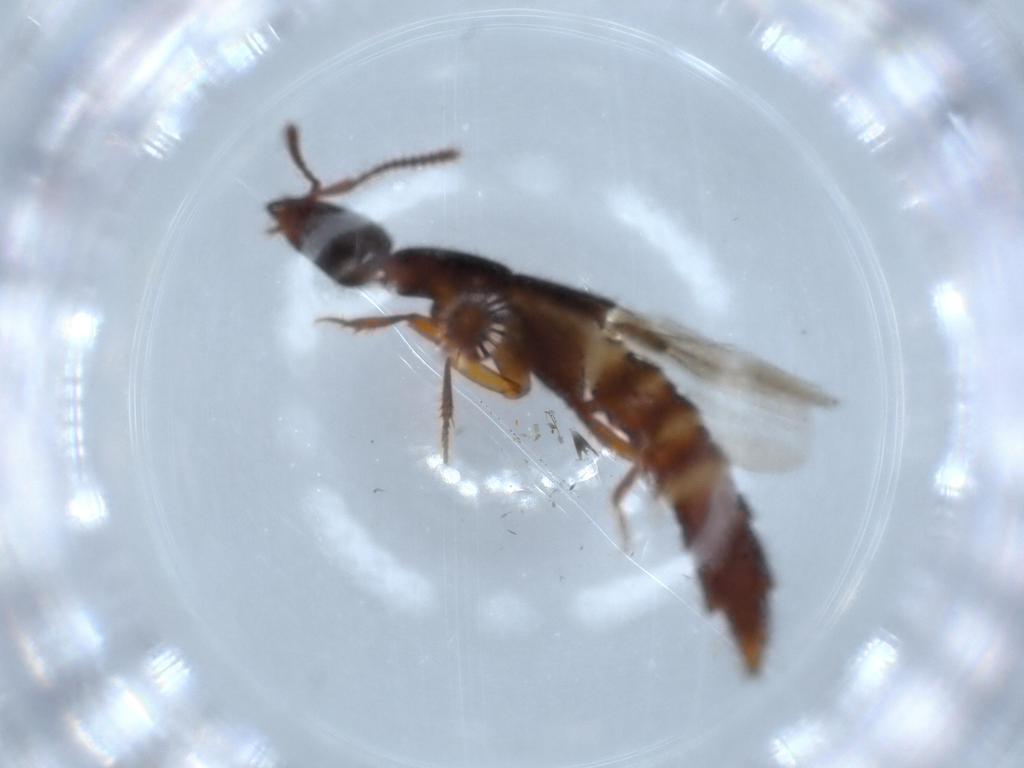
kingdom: Animalia
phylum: Arthropoda
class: Insecta
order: Coleoptera
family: Staphylinidae
